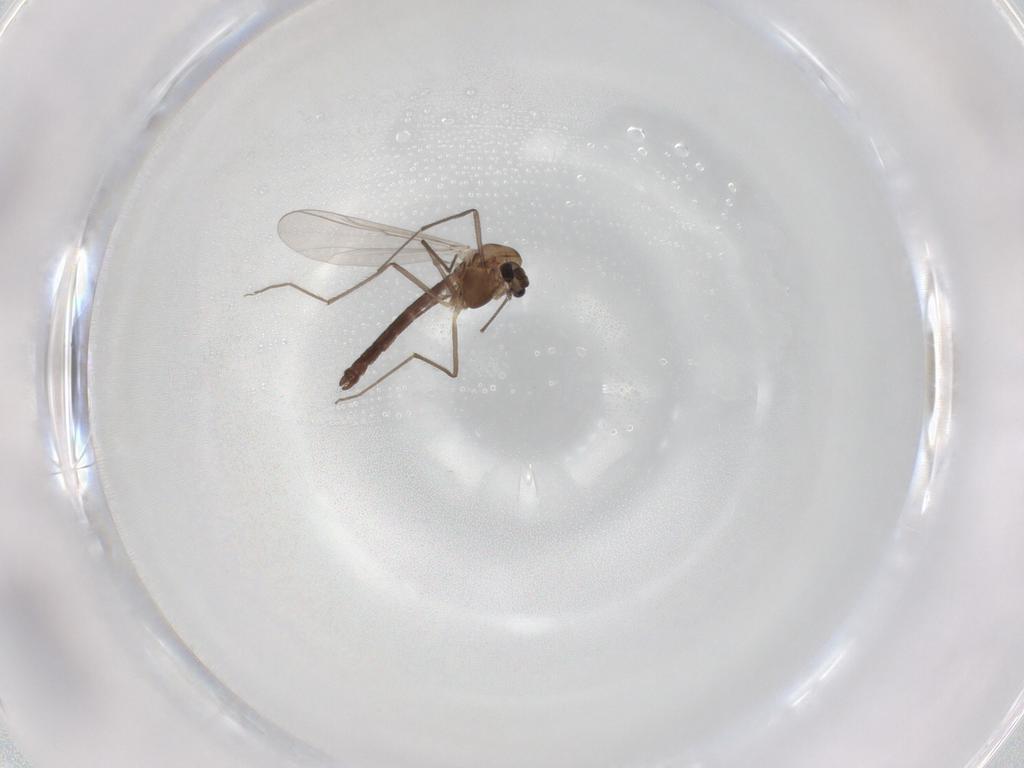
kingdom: Animalia
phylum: Arthropoda
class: Insecta
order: Diptera
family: Chironomidae
